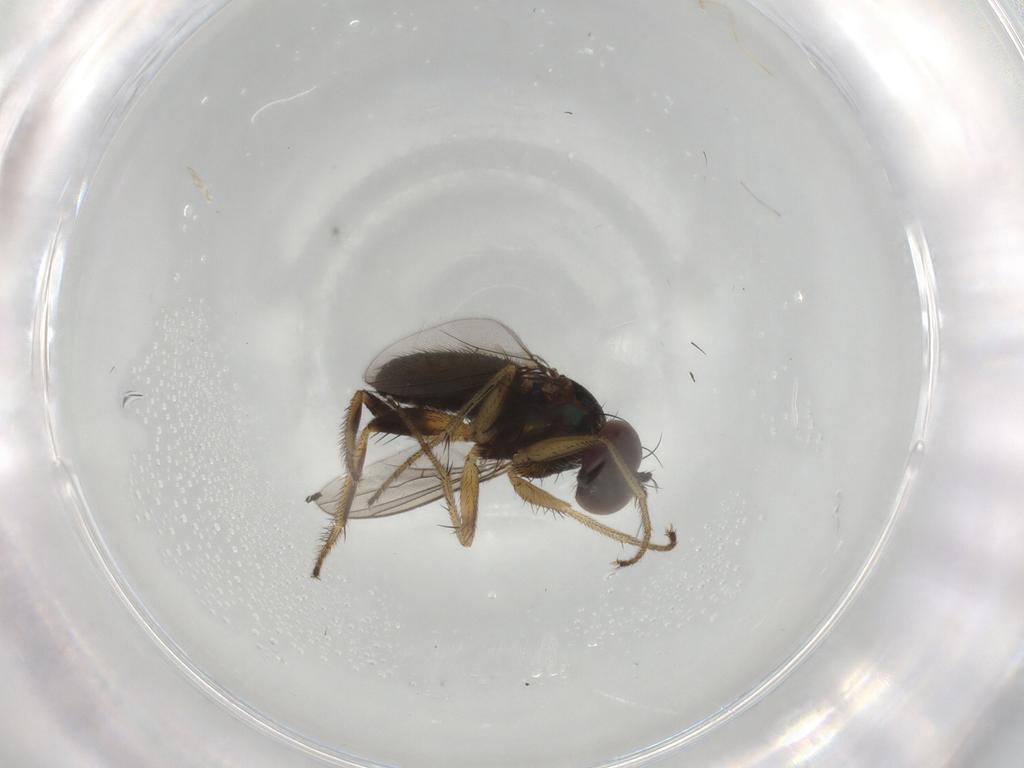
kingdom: Animalia
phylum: Arthropoda
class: Insecta
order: Diptera
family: Dolichopodidae
